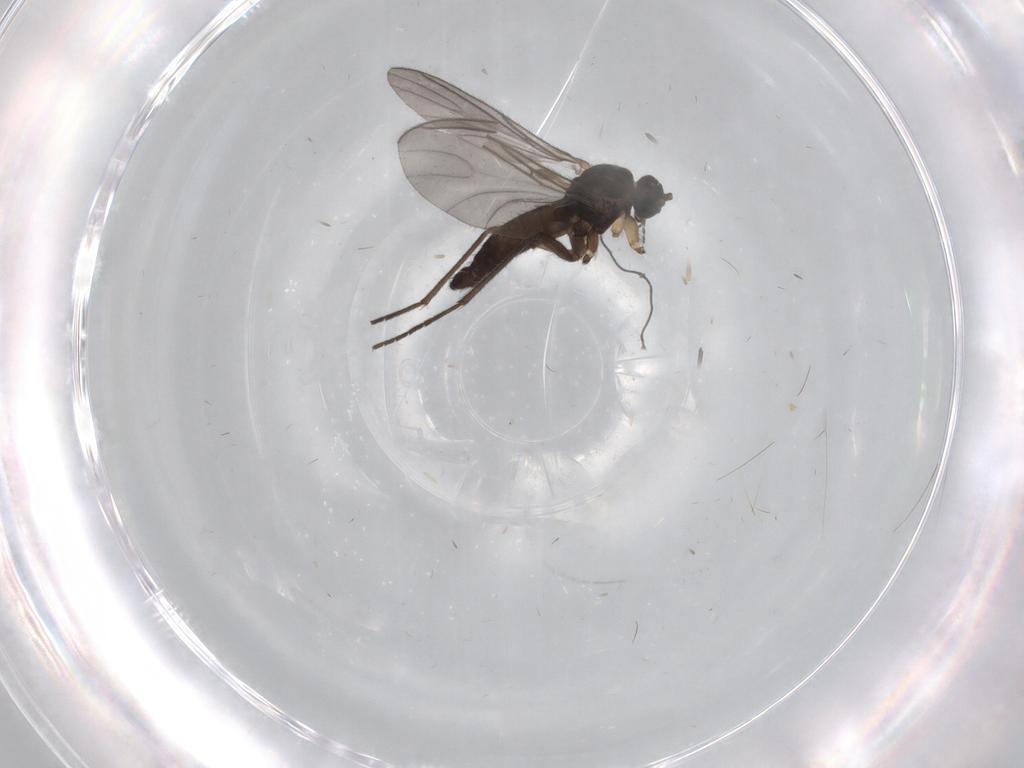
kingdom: Animalia
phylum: Arthropoda
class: Insecta
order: Diptera
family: Sciaridae
